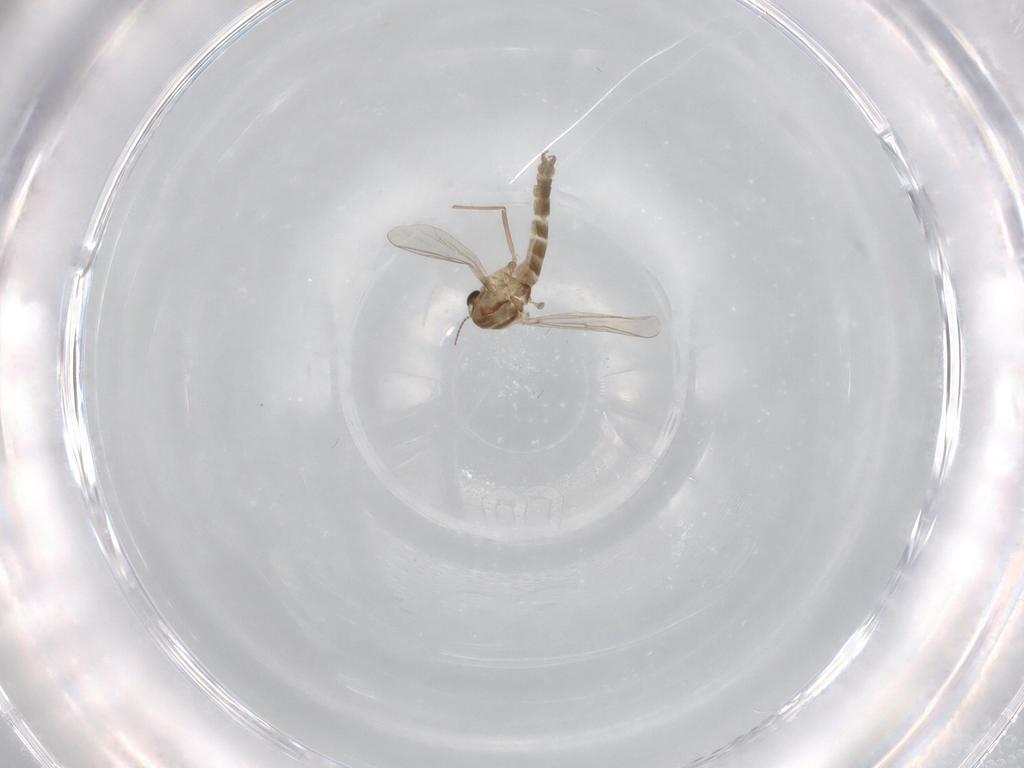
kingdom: Animalia
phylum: Arthropoda
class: Insecta
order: Diptera
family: Chironomidae
